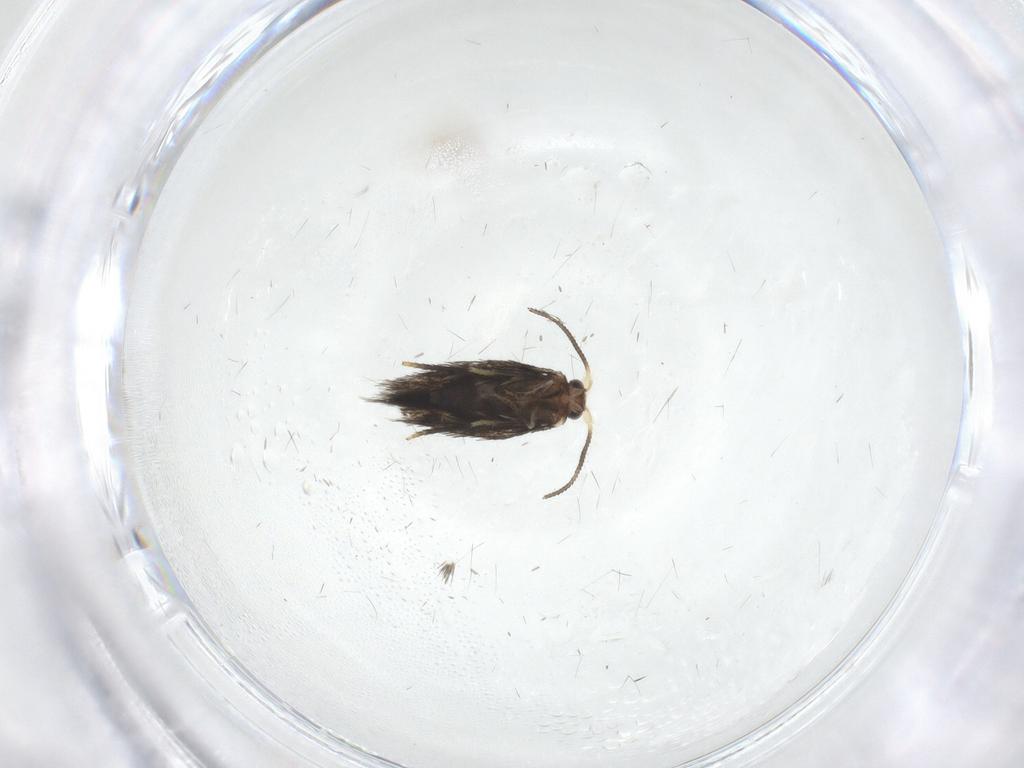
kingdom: Animalia
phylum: Arthropoda
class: Insecta
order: Lepidoptera
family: Nepticulidae
